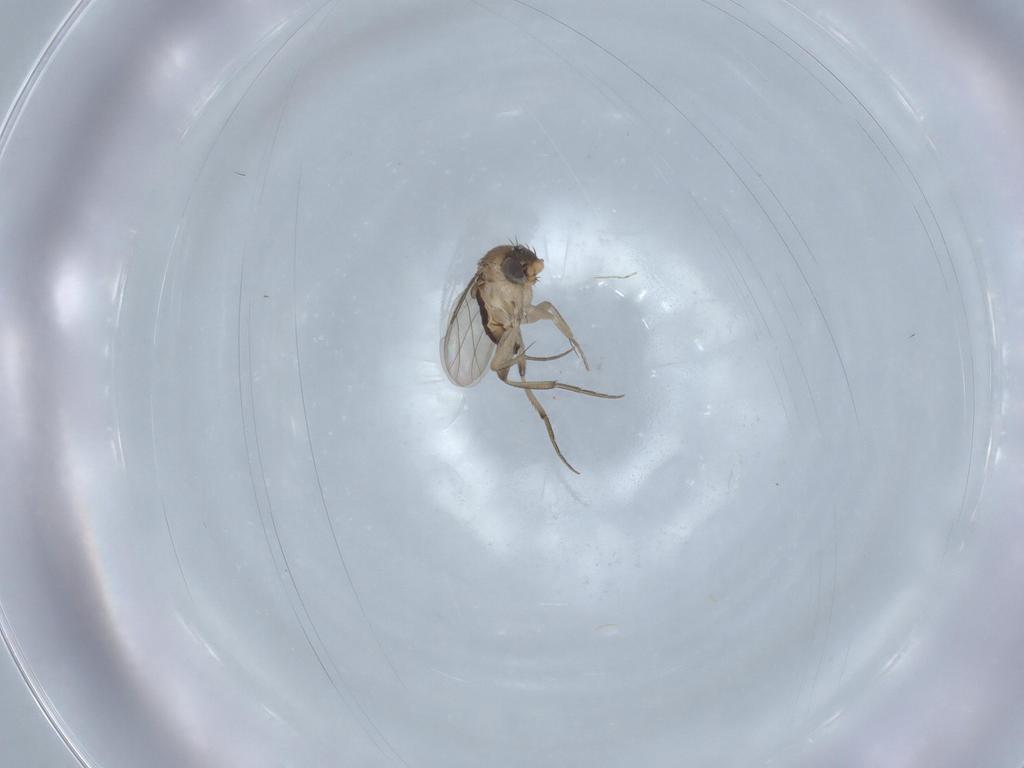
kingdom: Animalia
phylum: Arthropoda
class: Insecta
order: Diptera
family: Phoridae
